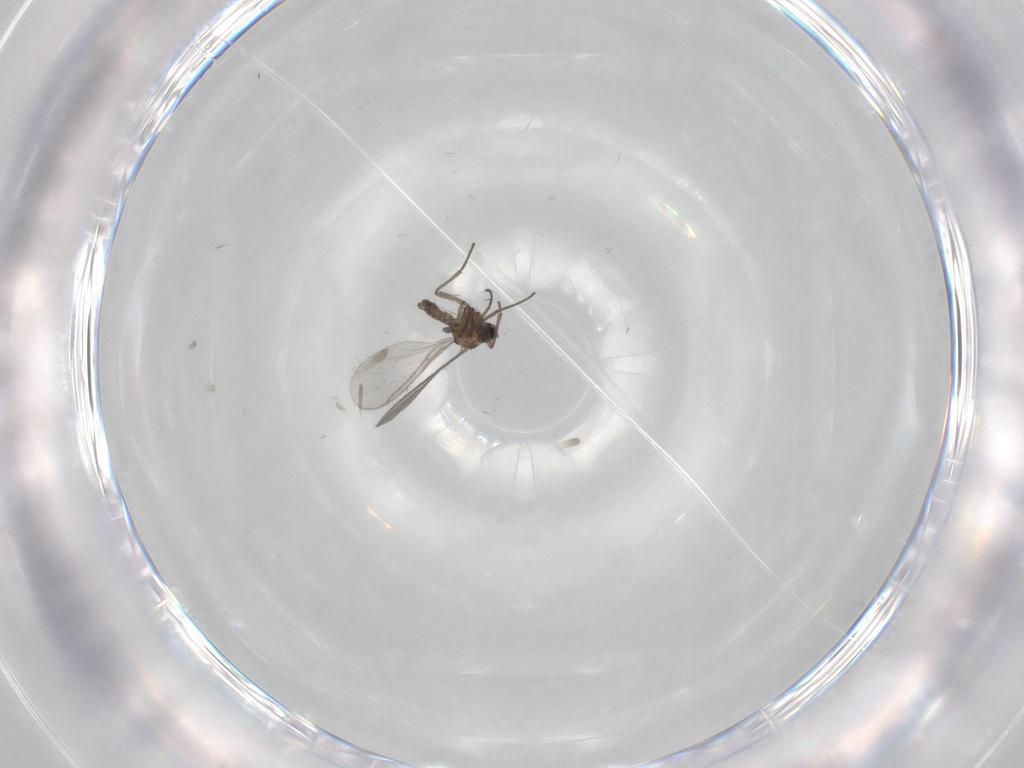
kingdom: Animalia
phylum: Arthropoda
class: Insecta
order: Diptera
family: Sciaridae
